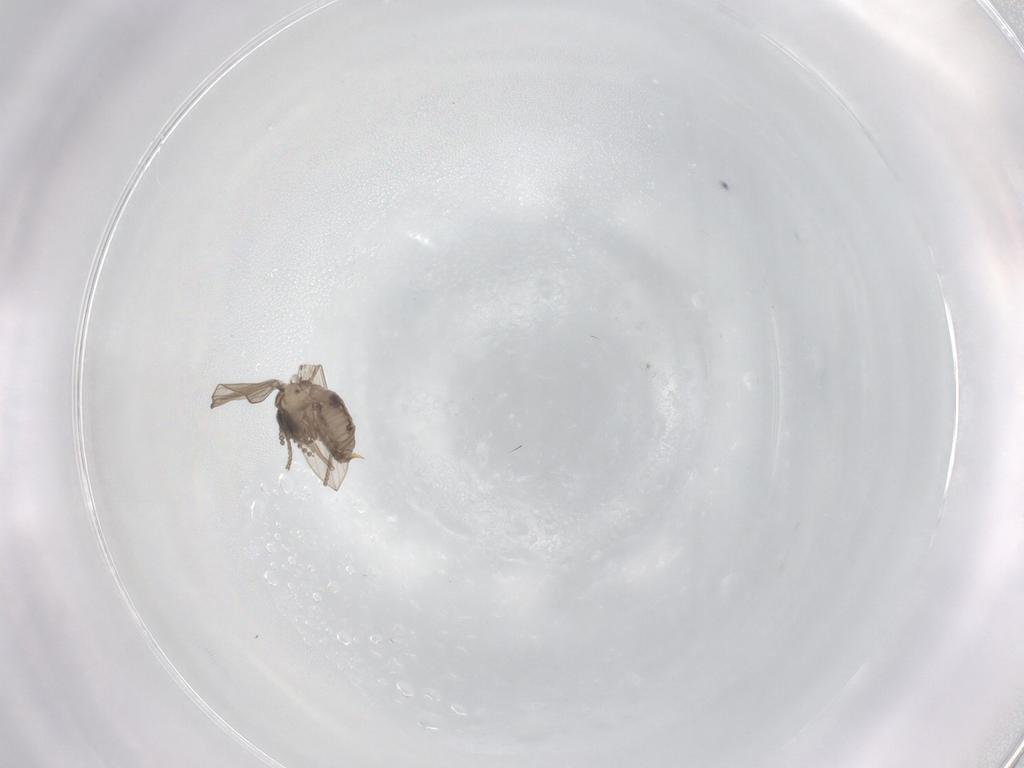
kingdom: Animalia
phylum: Arthropoda
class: Insecta
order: Diptera
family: Psychodidae
